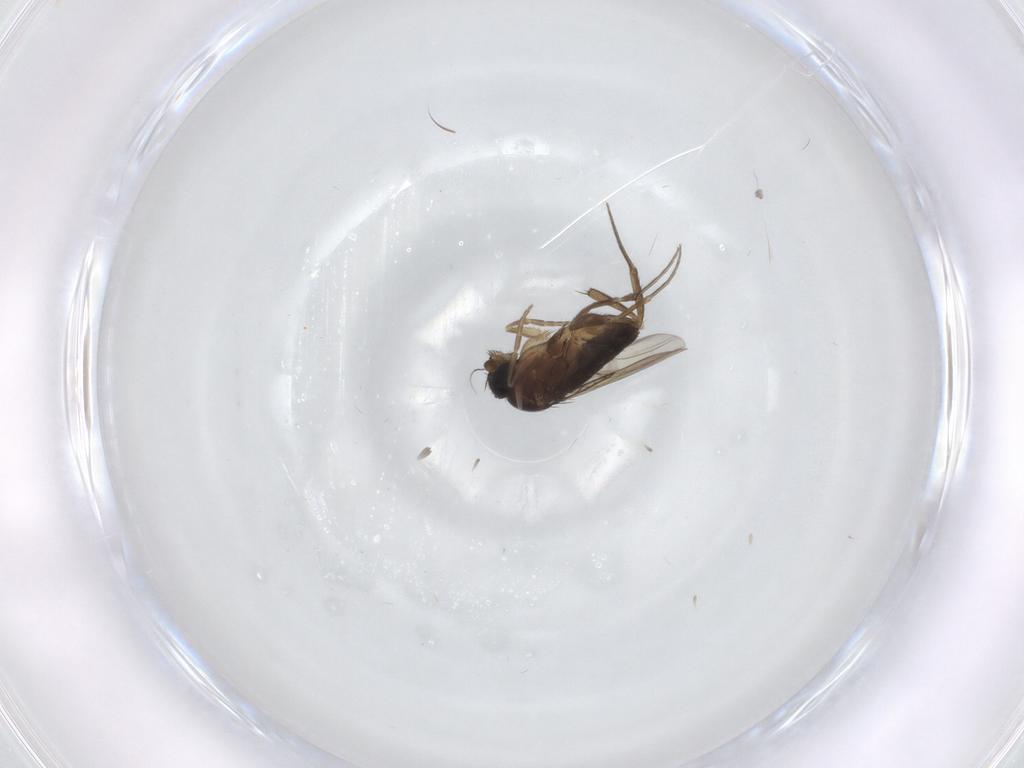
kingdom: Animalia
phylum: Arthropoda
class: Insecta
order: Diptera
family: Phoridae
